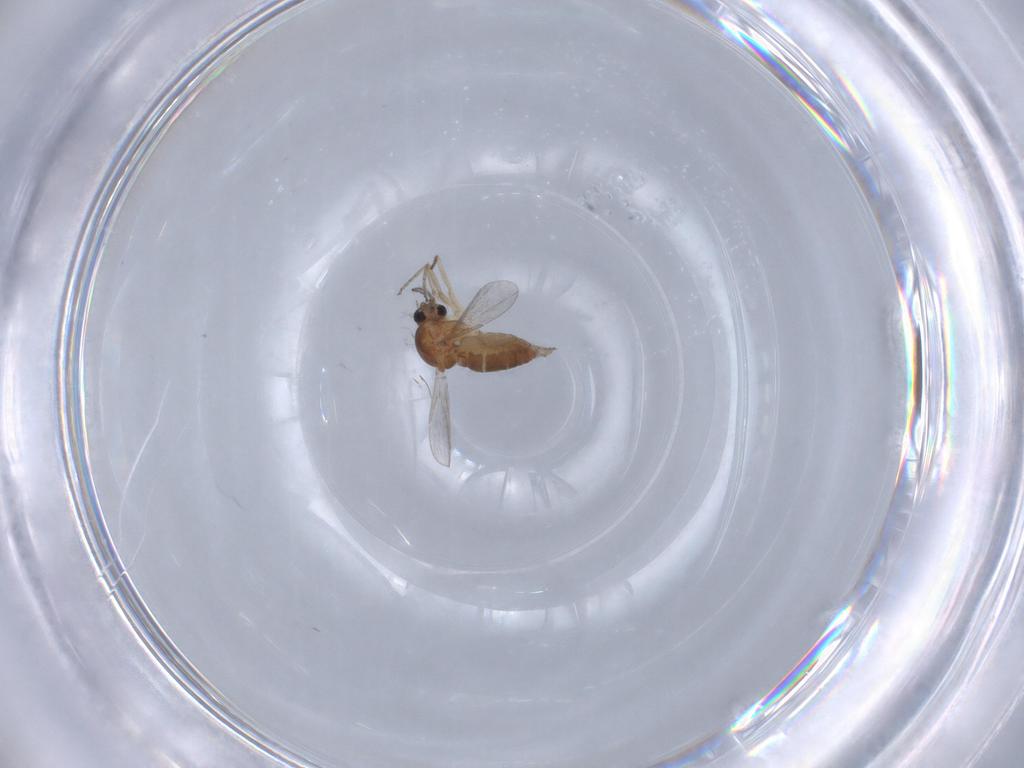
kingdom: Animalia
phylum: Arthropoda
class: Insecta
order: Diptera
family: Ceratopogonidae
